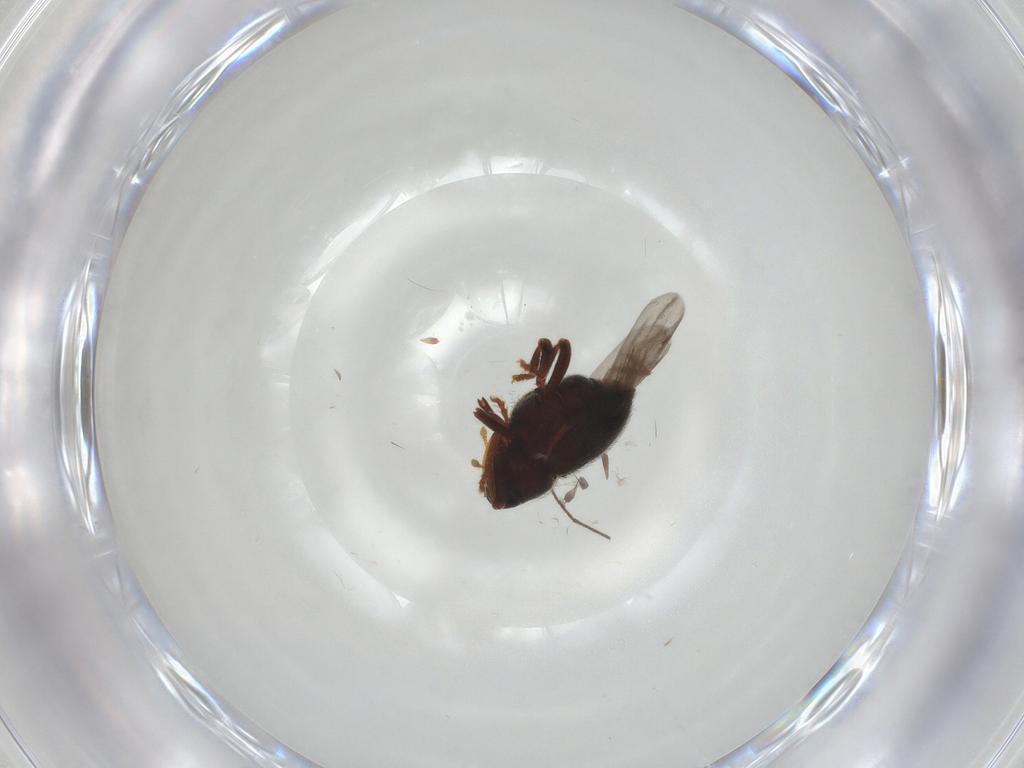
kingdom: Animalia
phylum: Arthropoda
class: Insecta
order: Coleoptera
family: Curculionidae
